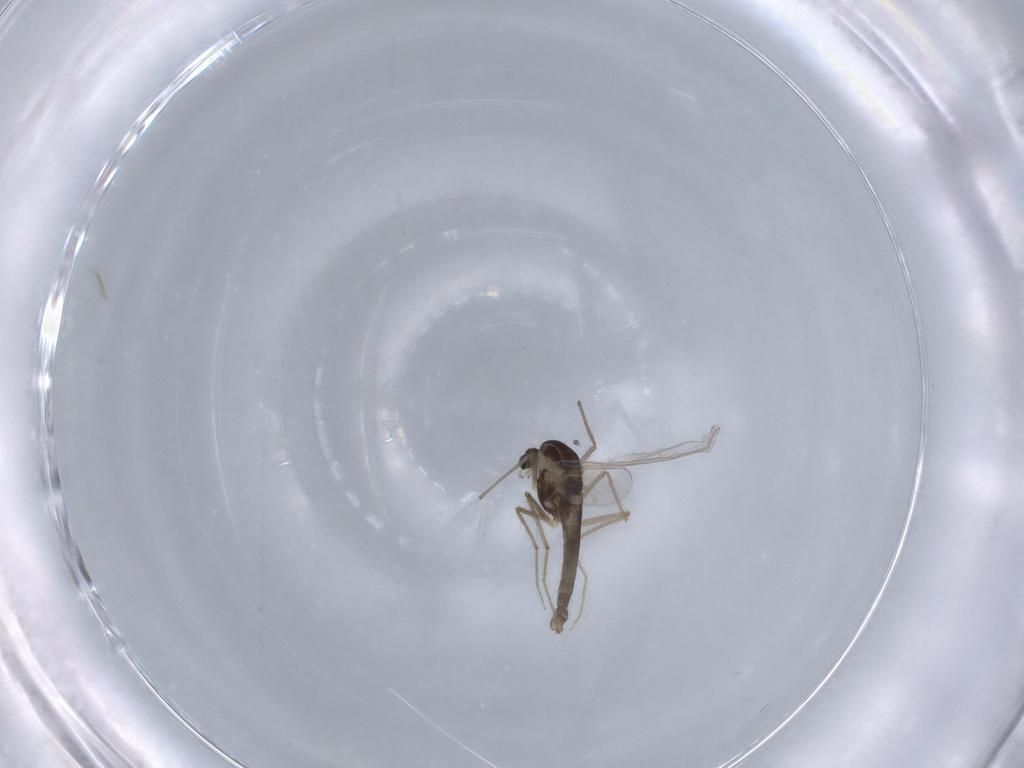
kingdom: Animalia
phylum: Arthropoda
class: Insecta
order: Diptera
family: Chironomidae
